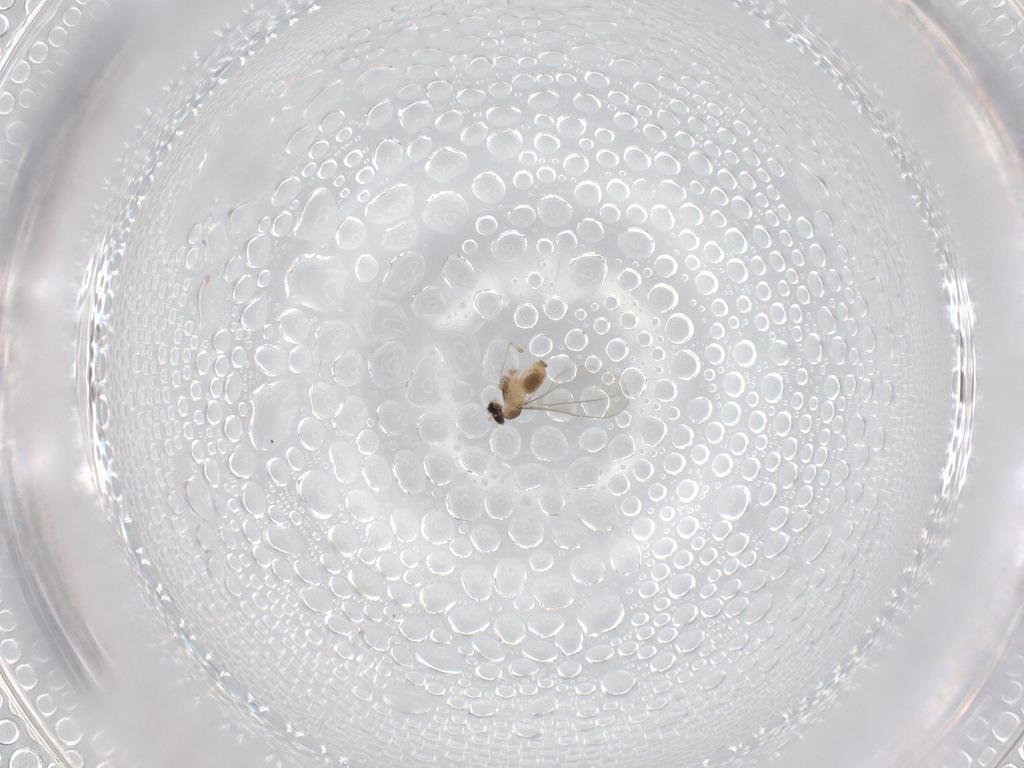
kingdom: Animalia
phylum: Arthropoda
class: Insecta
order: Diptera
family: Cecidomyiidae
